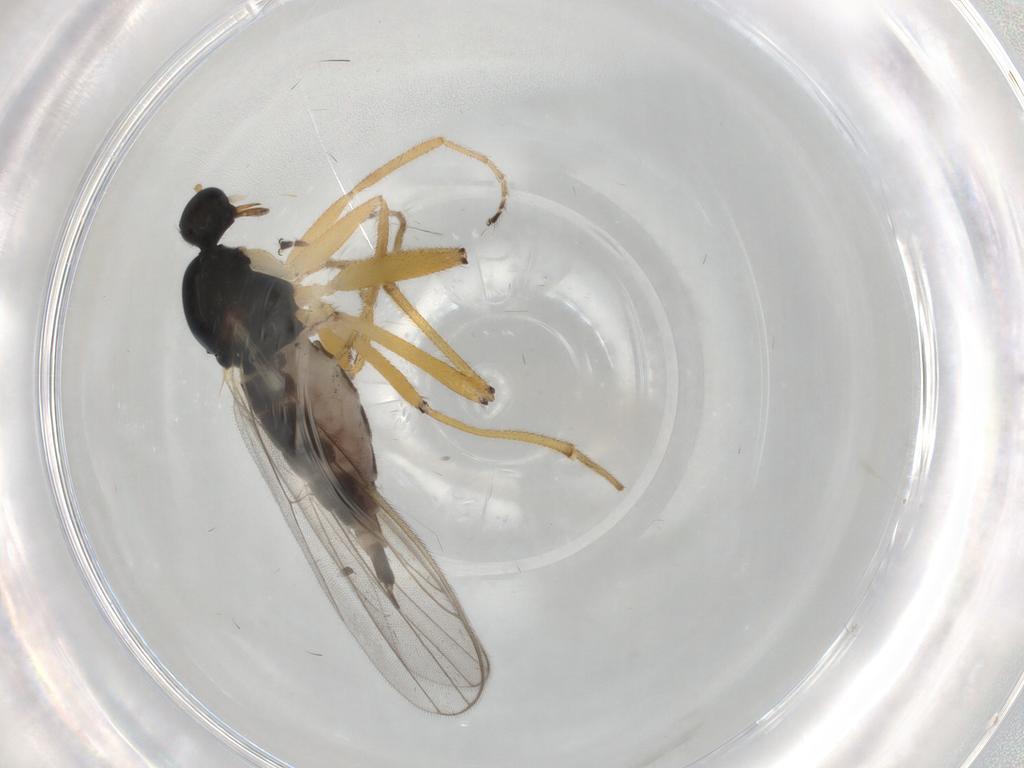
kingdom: Animalia
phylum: Arthropoda
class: Insecta
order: Diptera
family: Hybotidae
